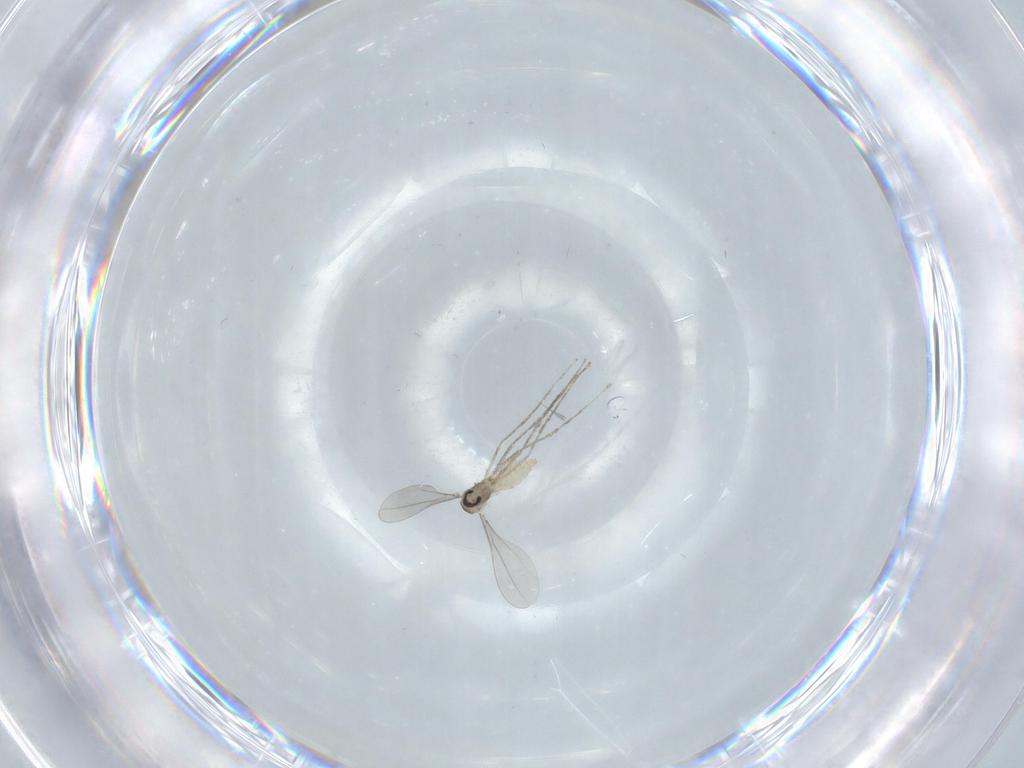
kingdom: Animalia
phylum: Arthropoda
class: Insecta
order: Diptera
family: Cecidomyiidae
